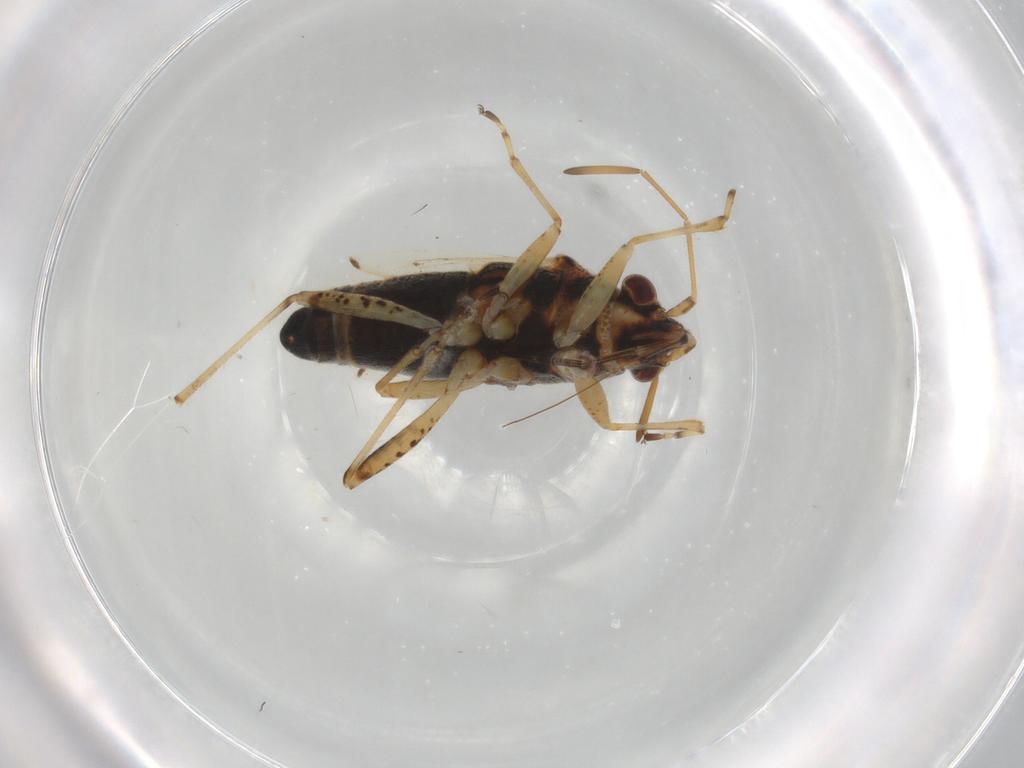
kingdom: Animalia
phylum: Arthropoda
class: Insecta
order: Hemiptera
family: Lygaeidae
